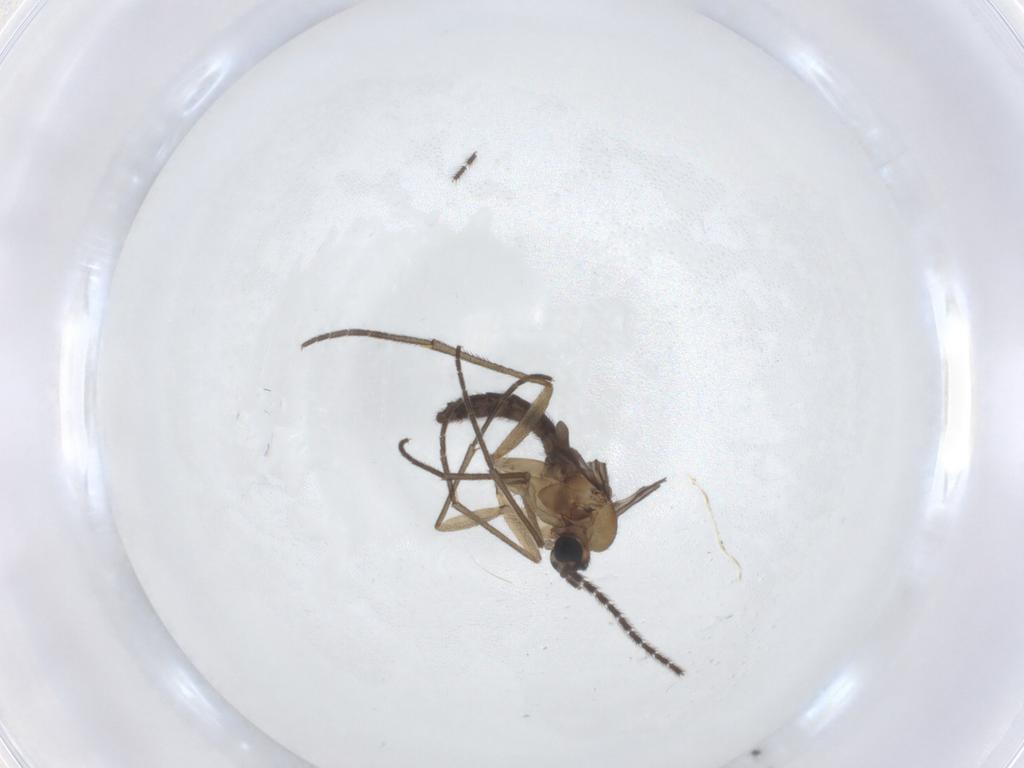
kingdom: Animalia
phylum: Arthropoda
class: Insecta
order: Diptera
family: Sciaridae
